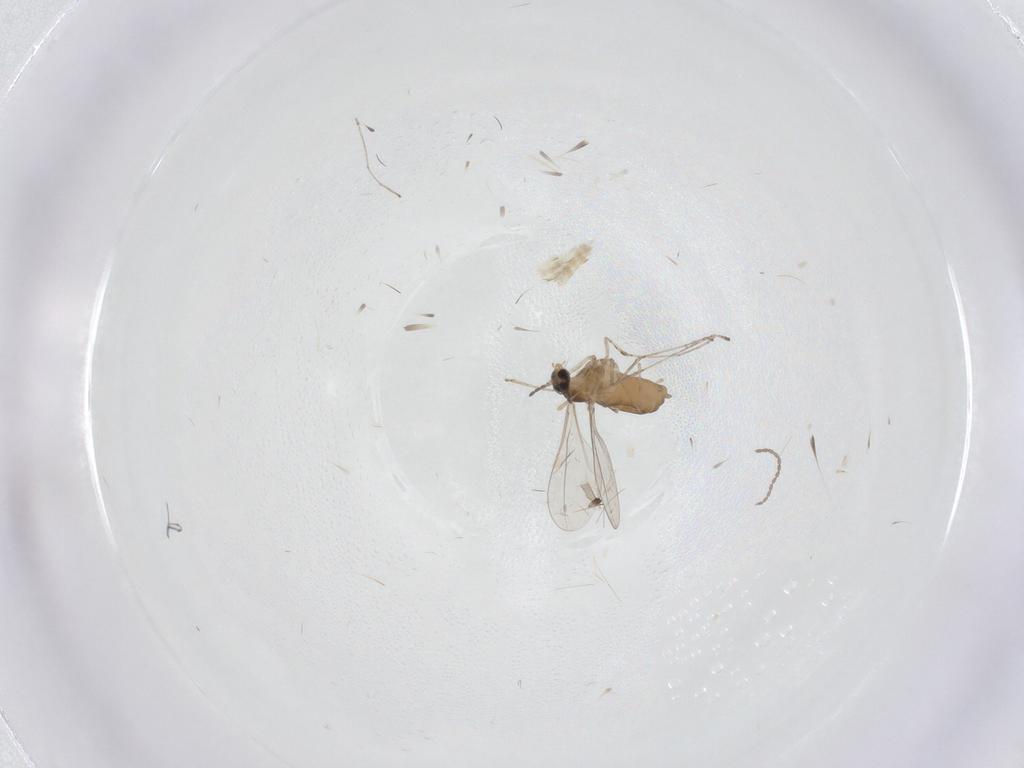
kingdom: Animalia
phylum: Arthropoda
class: Insecta
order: Diptera
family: Cecidomyiidae
